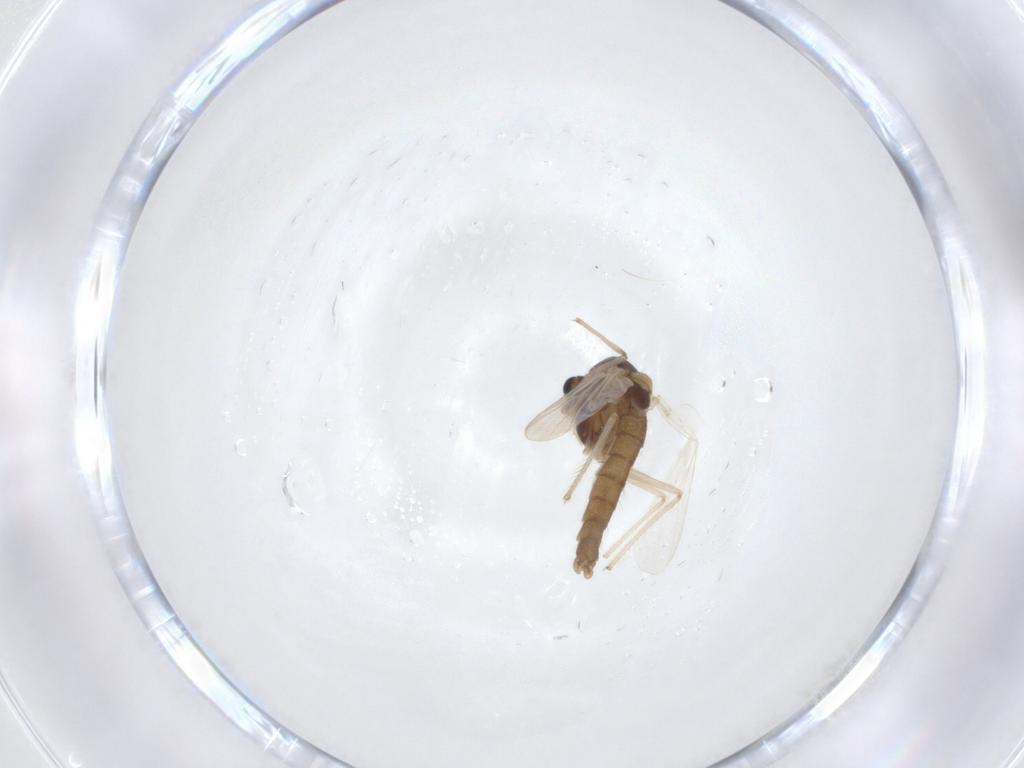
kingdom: Animalia
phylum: Arthropoda
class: Insecta
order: Diptera
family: Chironomidae
